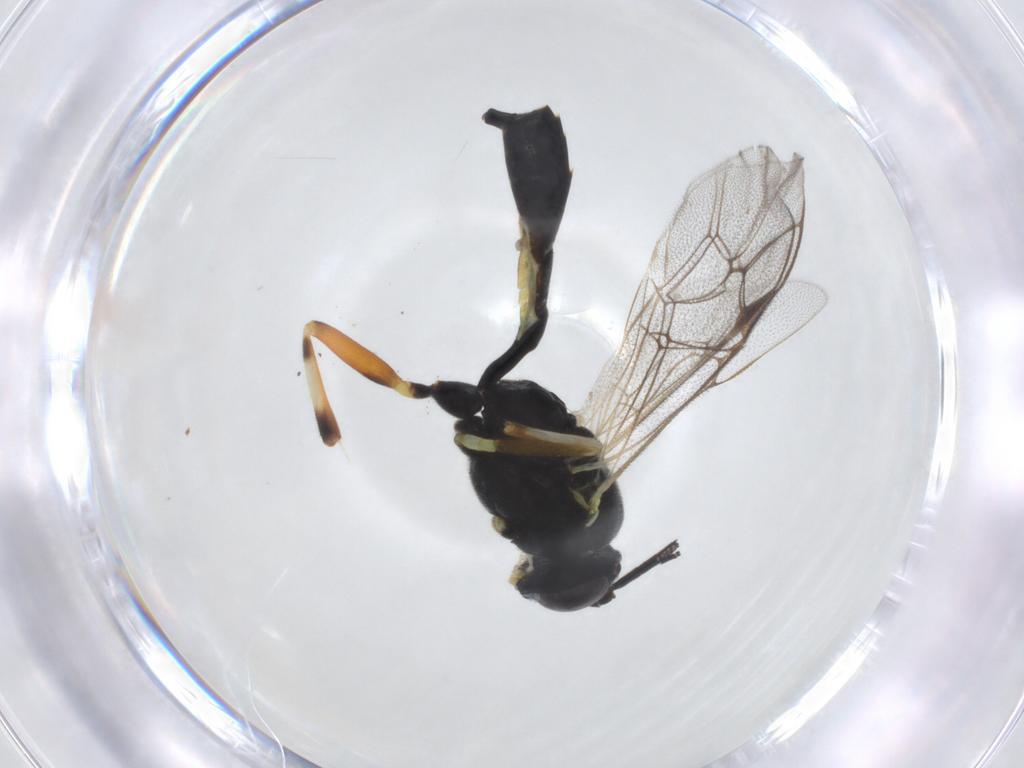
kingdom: Animalia
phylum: Arthropoda
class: Insecta
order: Hymenoptera
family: Ichneumonidae
